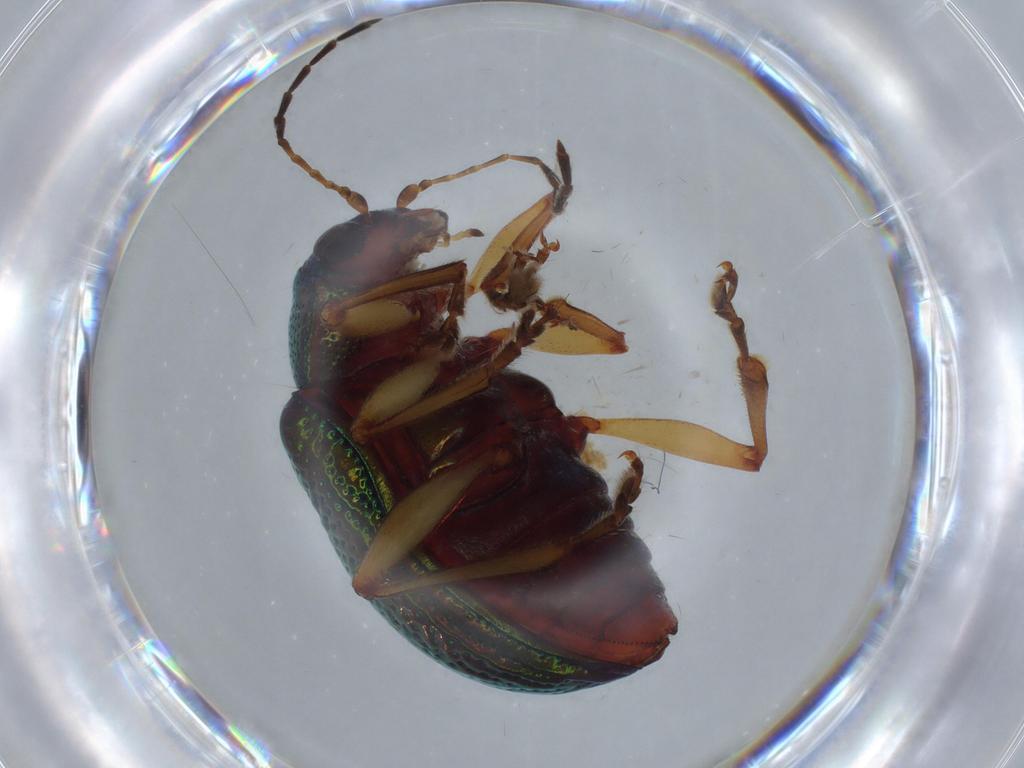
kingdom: Animalia
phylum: Arthropoda
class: Insecta
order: Coleoptera
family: Chrysomelidae
